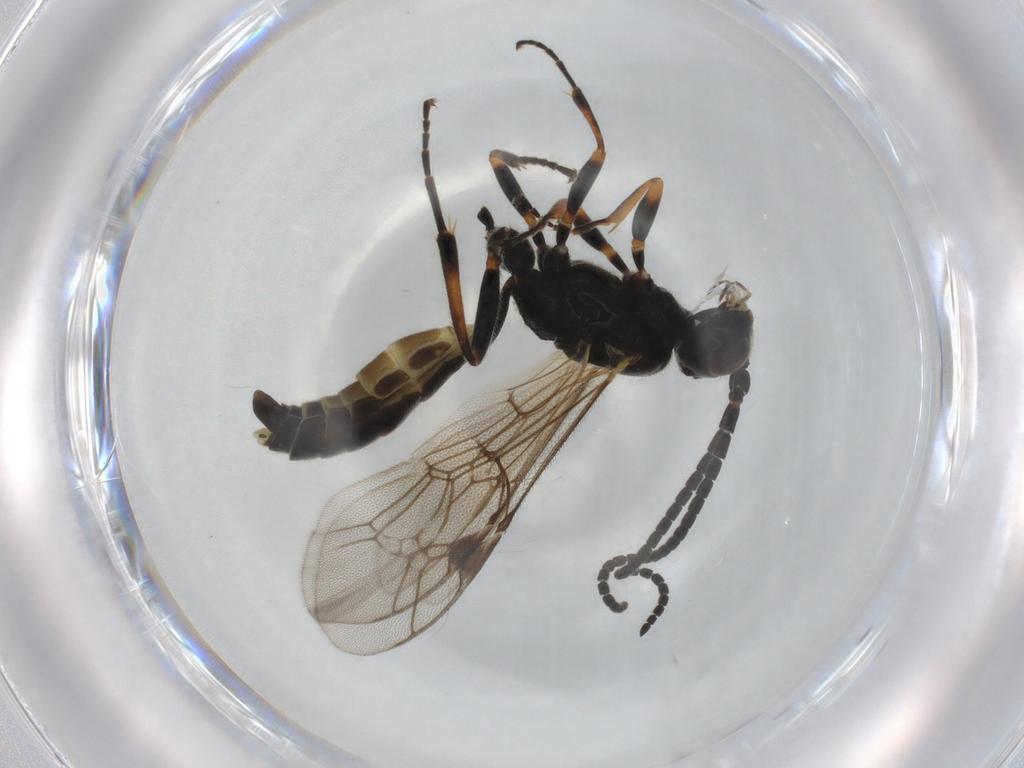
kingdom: Animalia
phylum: Arthropoda
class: Insecta
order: Hymenoptera
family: Ichneumonidae
